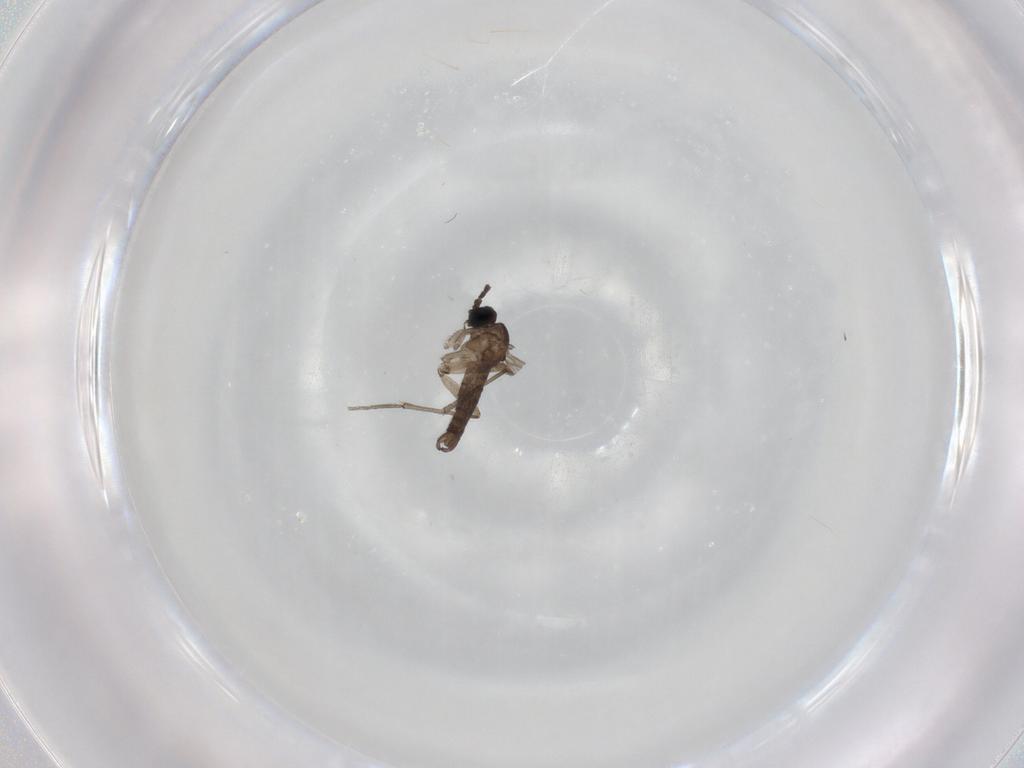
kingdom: Animalia
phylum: Arthropoda
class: Insecta
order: Diptera
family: Sciaridae
